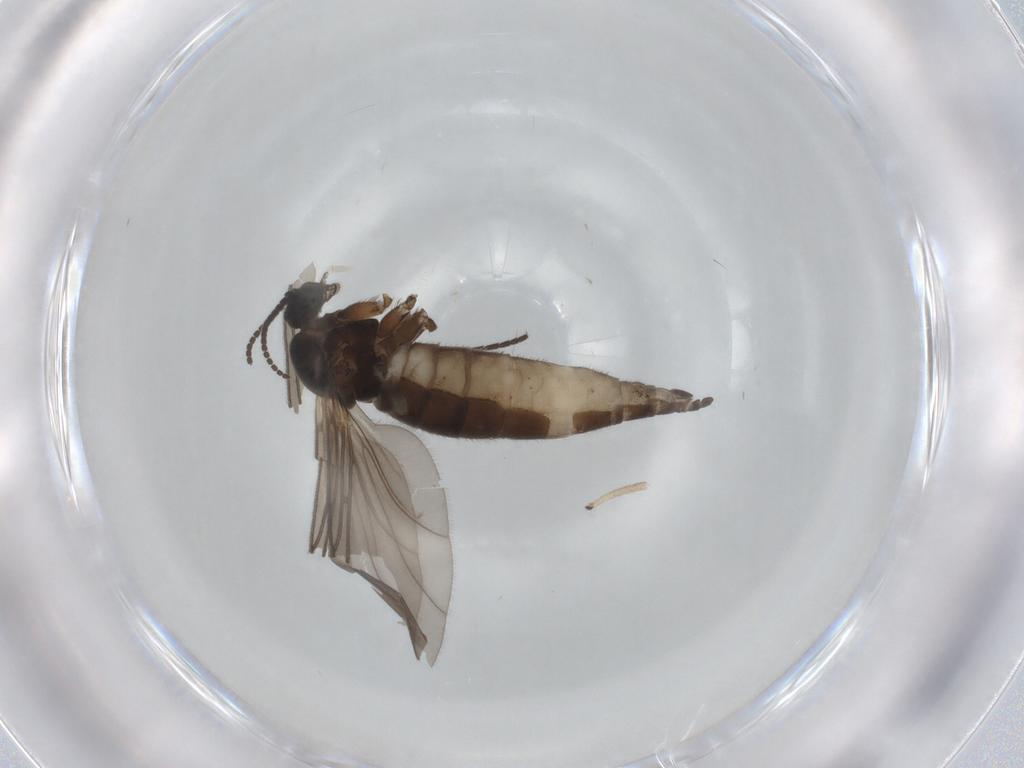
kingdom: Animalia
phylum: Arthropoda
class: Insecta
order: Diptera
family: Sciaridae
